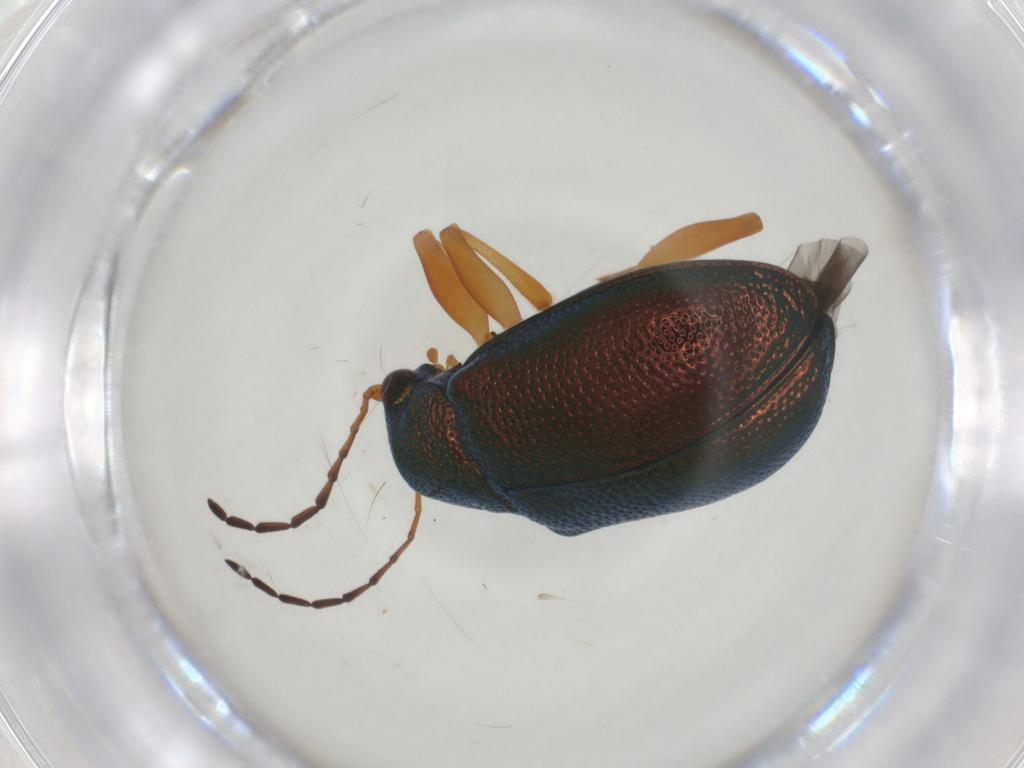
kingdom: Animalia
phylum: Arthropoda
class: Insecta
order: Coleoptera
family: Chrysomelidae
